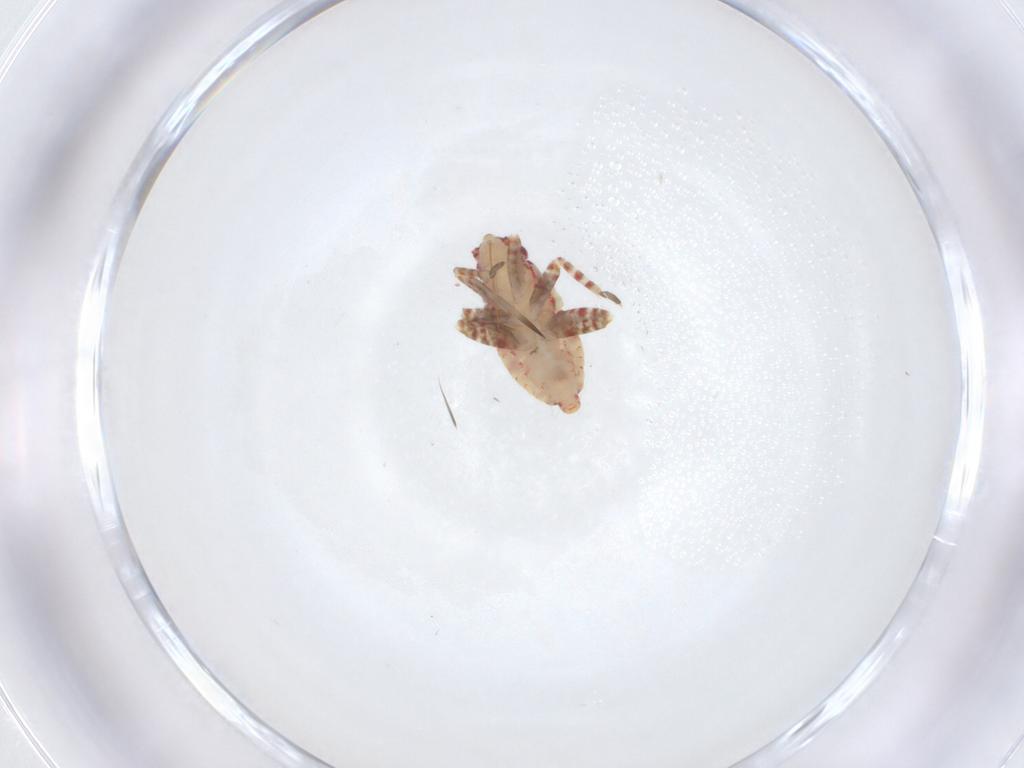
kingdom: Animalia
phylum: Arthropoda
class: Insecta
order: Hemiptera
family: Miridae
